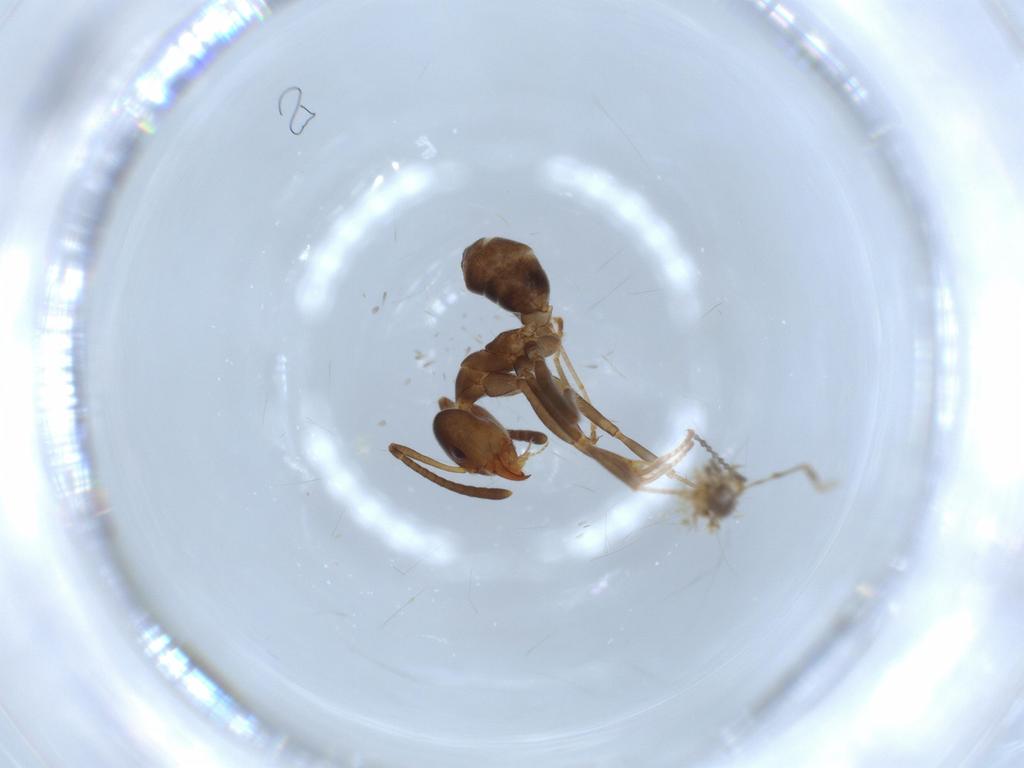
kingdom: Animalia
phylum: Arthropoda
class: Insecta
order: Hymenoptera
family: Formicidae
